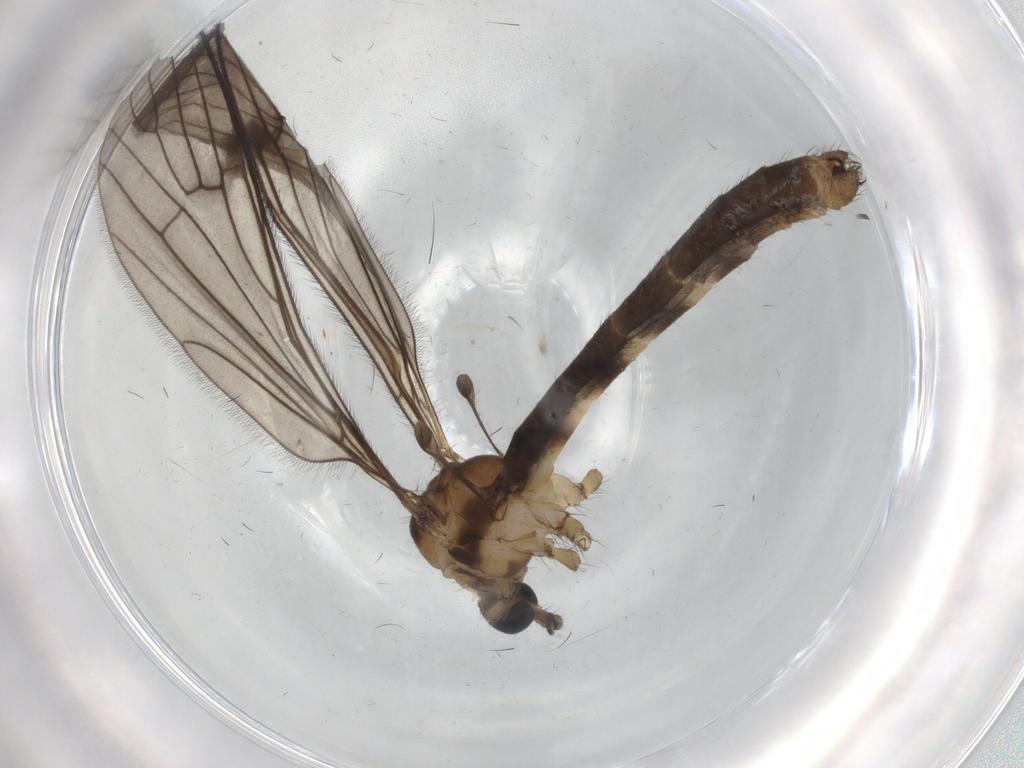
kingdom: Animalia
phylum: Arthropoda
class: Insecta
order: Diptera
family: Limoniidae
